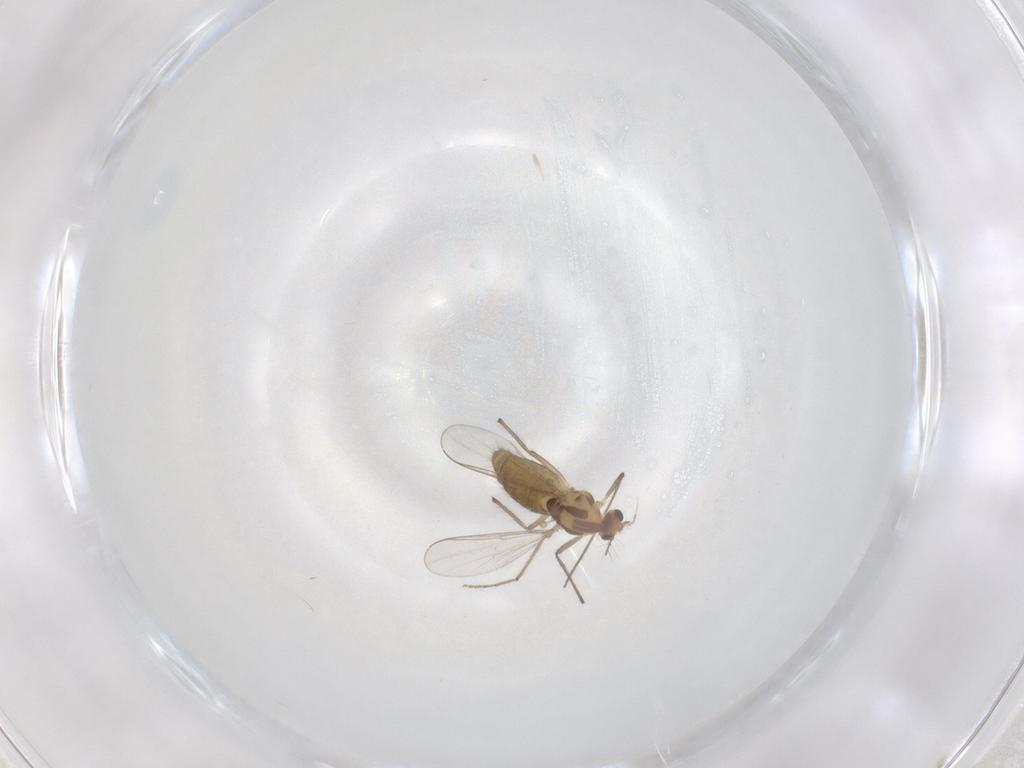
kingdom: Animalia
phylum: Arthropoda
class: Insecta
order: Diptera
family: Chironomidae
